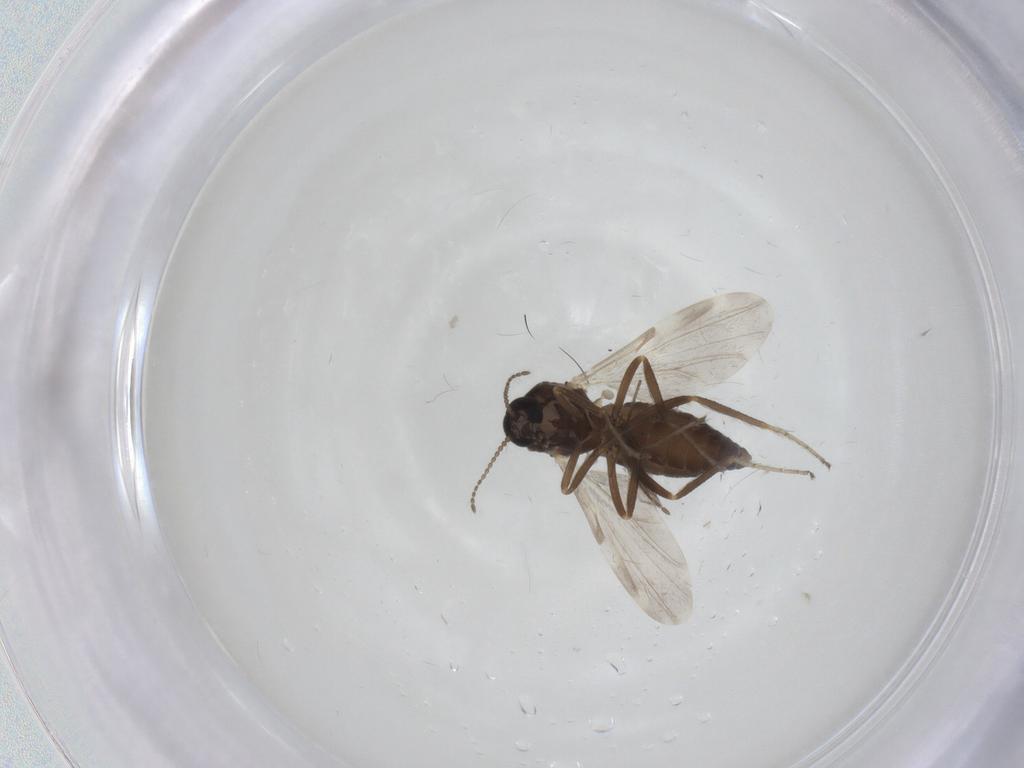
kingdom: Animalia
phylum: Arthropoda
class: Insecta
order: Diptera
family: Ceratopogonidae
